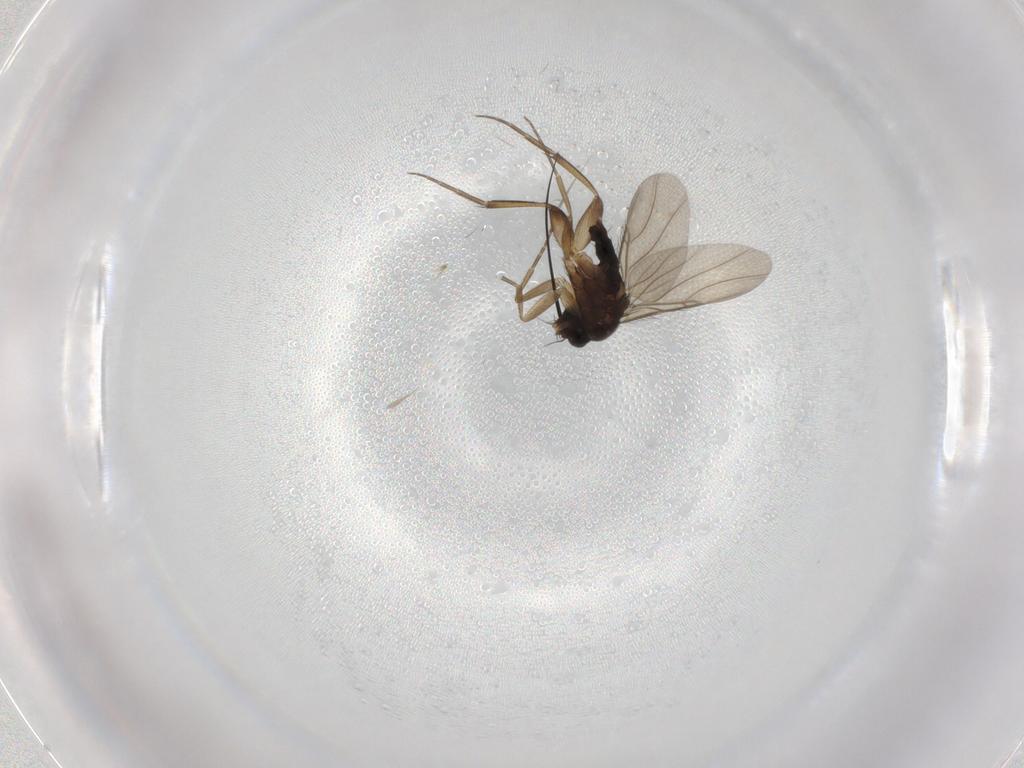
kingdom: Animalia
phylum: Arthropoda
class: Insecta
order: Diptera
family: Phoridae
